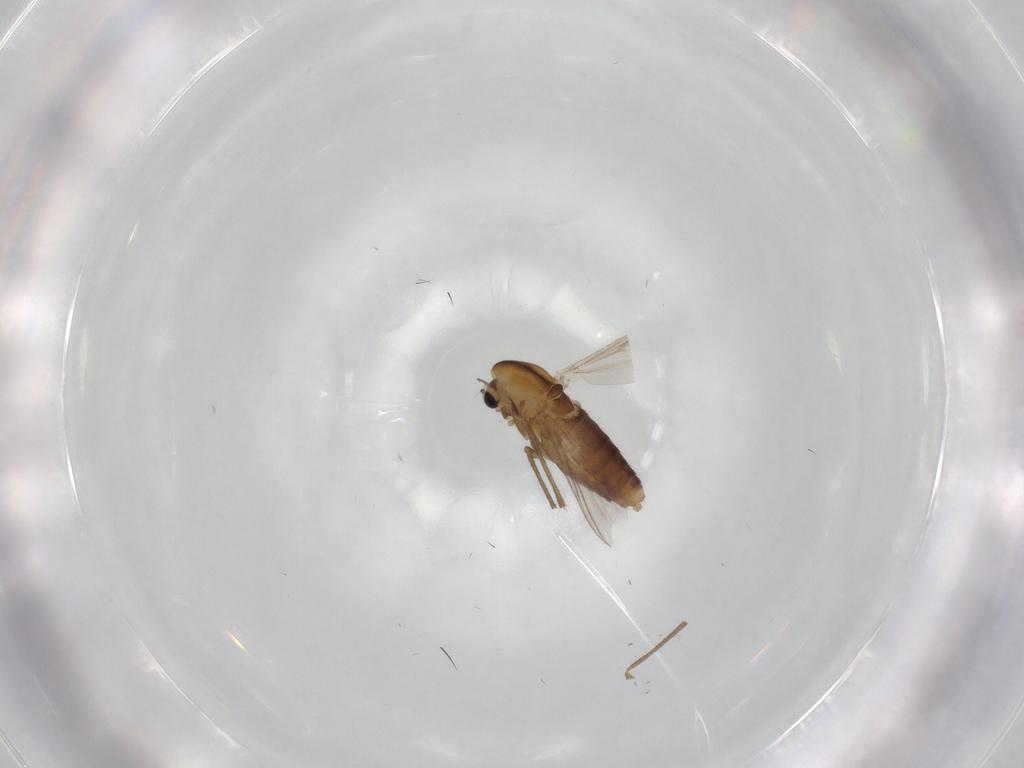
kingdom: Animalia
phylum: Arthropoda
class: Insecta
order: Diptera
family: Chironomidae
